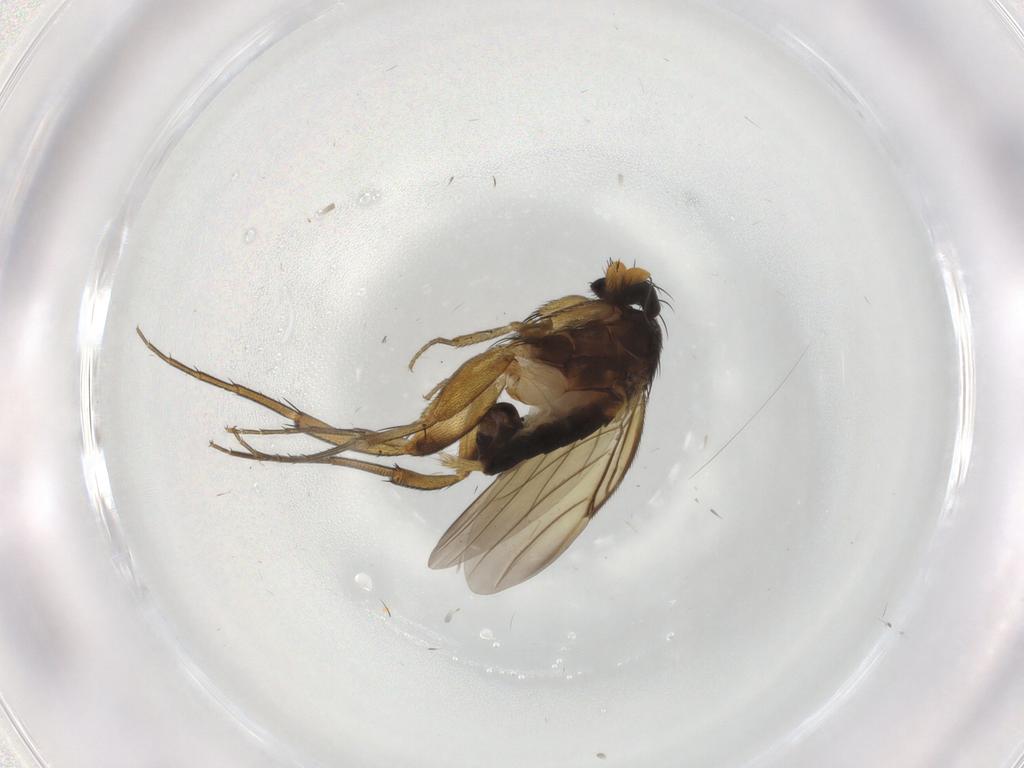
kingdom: Animalia
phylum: Arthropoda
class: Insecta
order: Diptera
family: Phoridae
